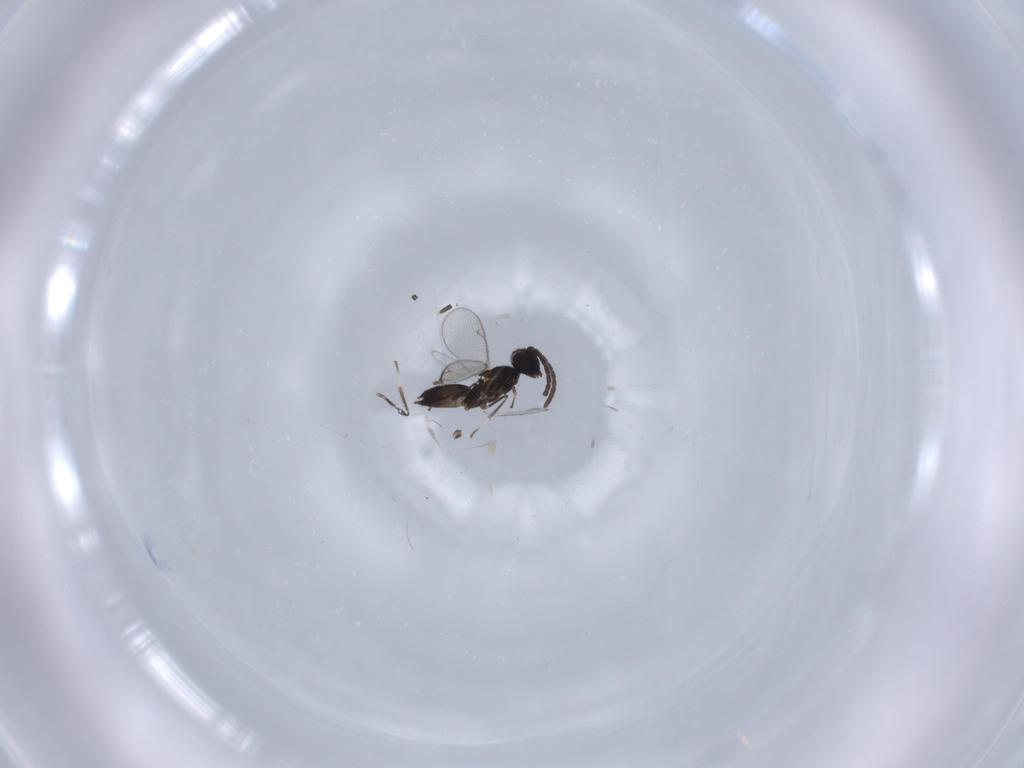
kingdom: Animalia
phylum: Arthropoda
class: Insecta
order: Hymenoptera
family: Eupelmidae
